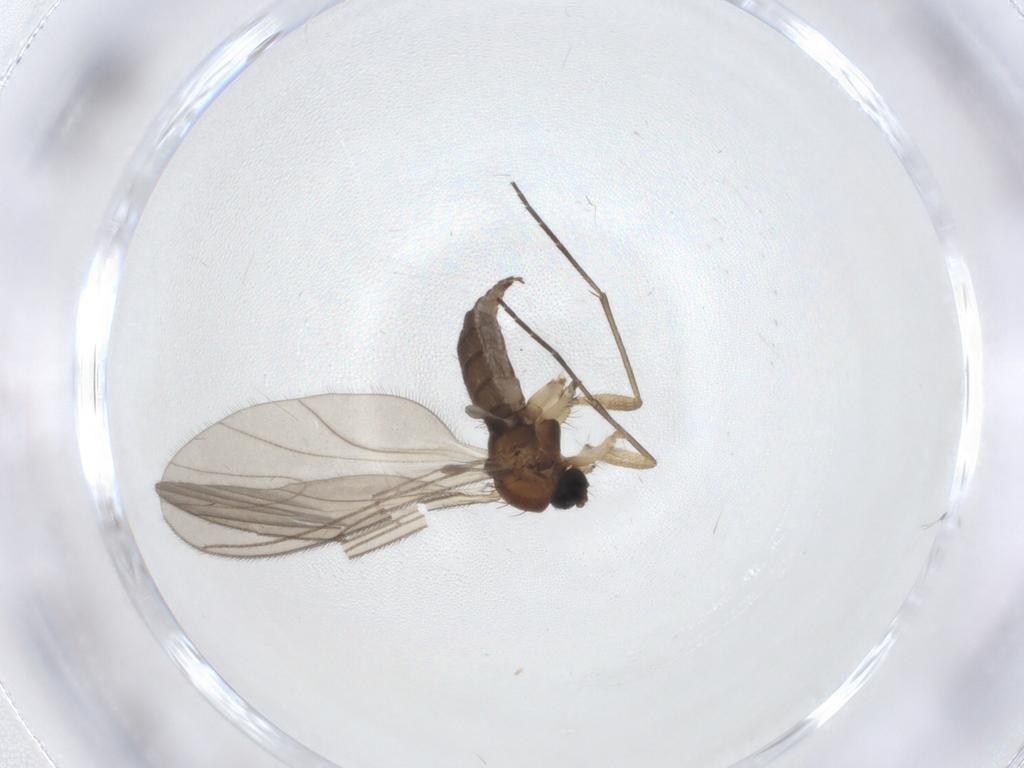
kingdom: Animalia
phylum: Arthropoda
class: Insecta
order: Diptera
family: Sciaridae
